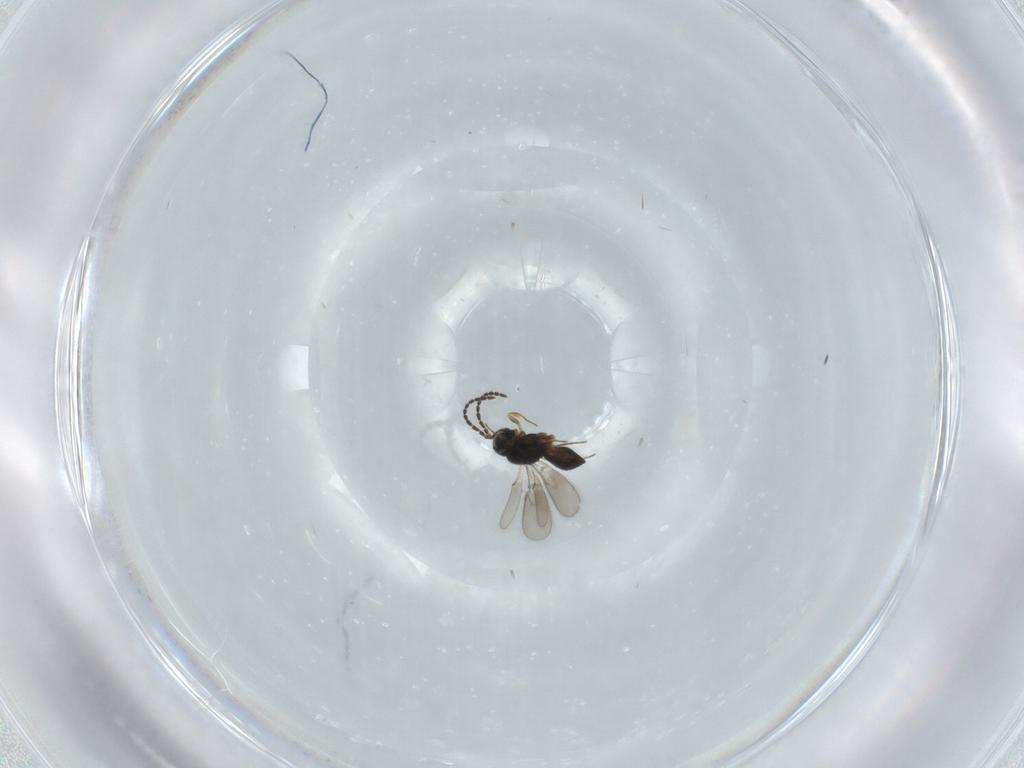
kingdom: Animalia
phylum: Arthropoda
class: Insecta
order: Hymenoptera
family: Scelionidae
